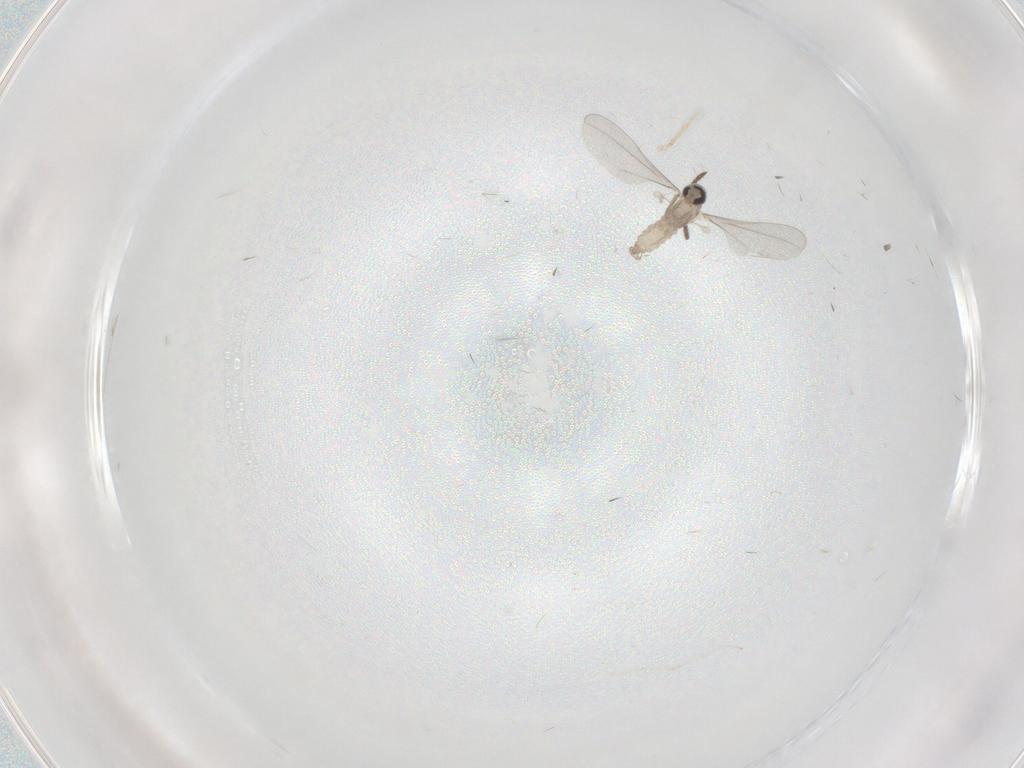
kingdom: Animalia
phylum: Arthropoda
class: Insecta
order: Diptera
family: Cecidomyiidae
